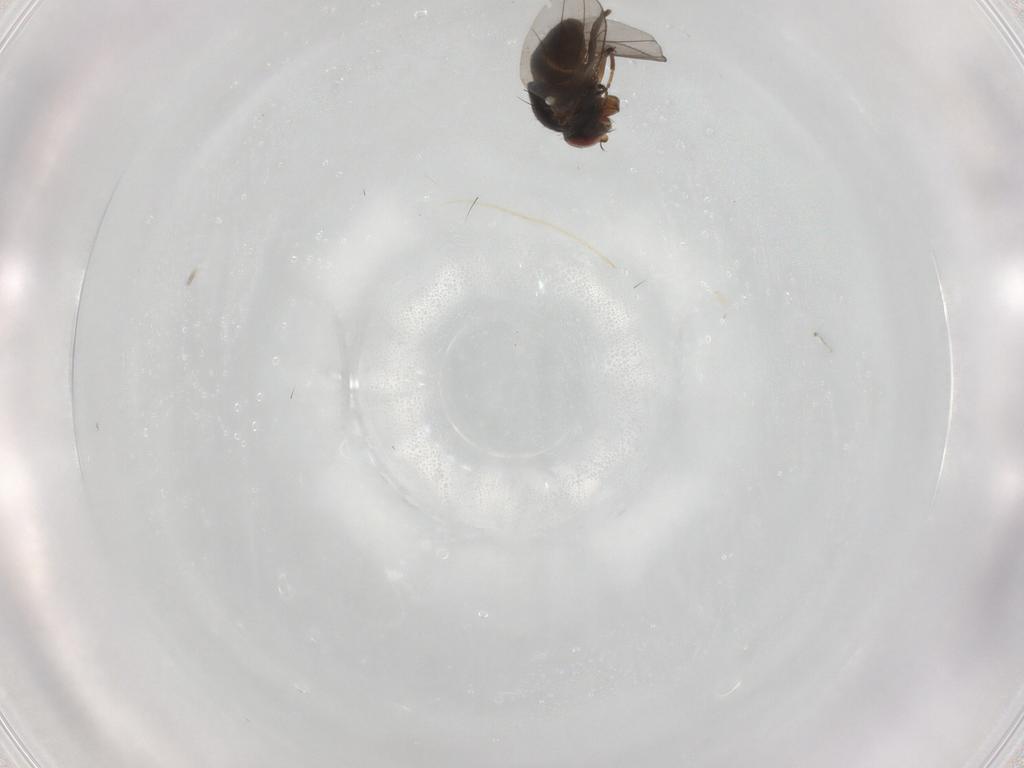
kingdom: Animalia
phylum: Arthropoda
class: Insecta
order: Diptera
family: Ephydridae
